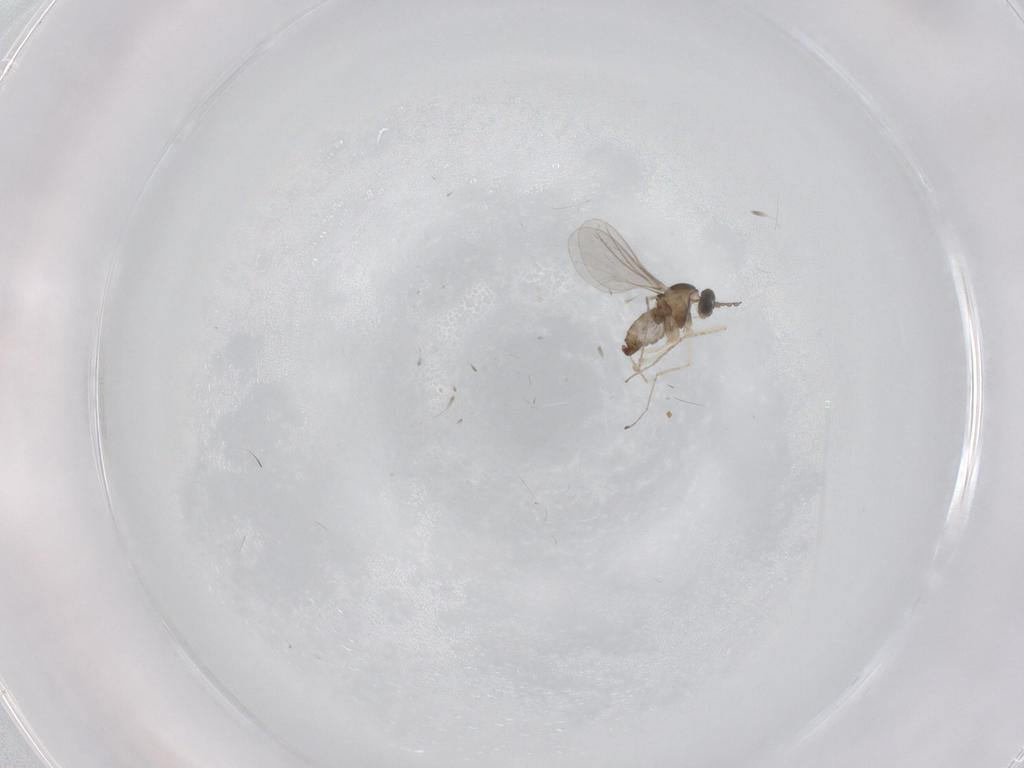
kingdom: Animalia
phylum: Arthropoda
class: Insecta
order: Diptera
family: Cecidomyiidae
